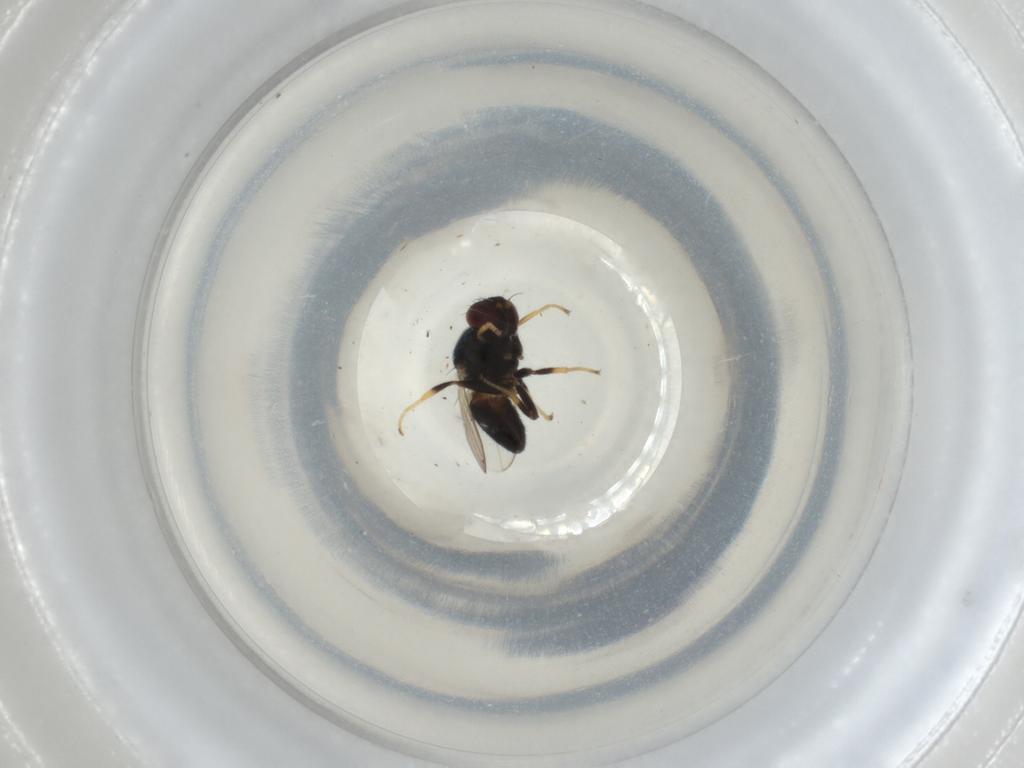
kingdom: Animalia
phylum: Arthropoda
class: Insecta
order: Diptera
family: Chloropidae
